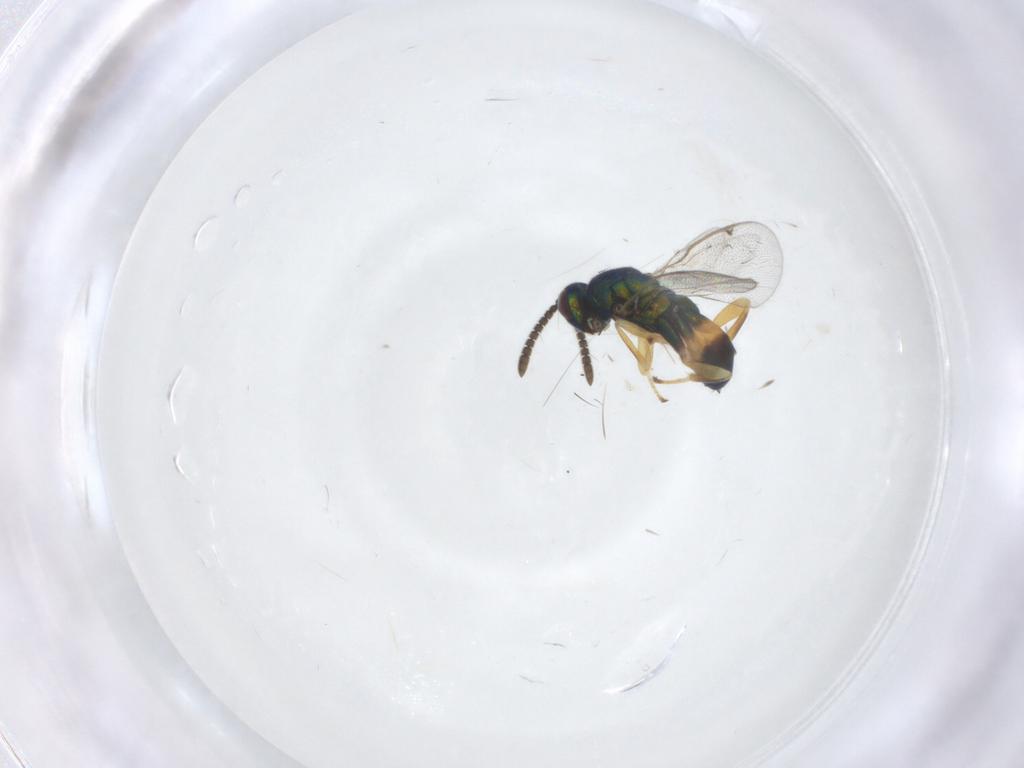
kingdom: Animalia
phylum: Arthropoda
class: Insecta
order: Hymenoptera
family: Torymidae
